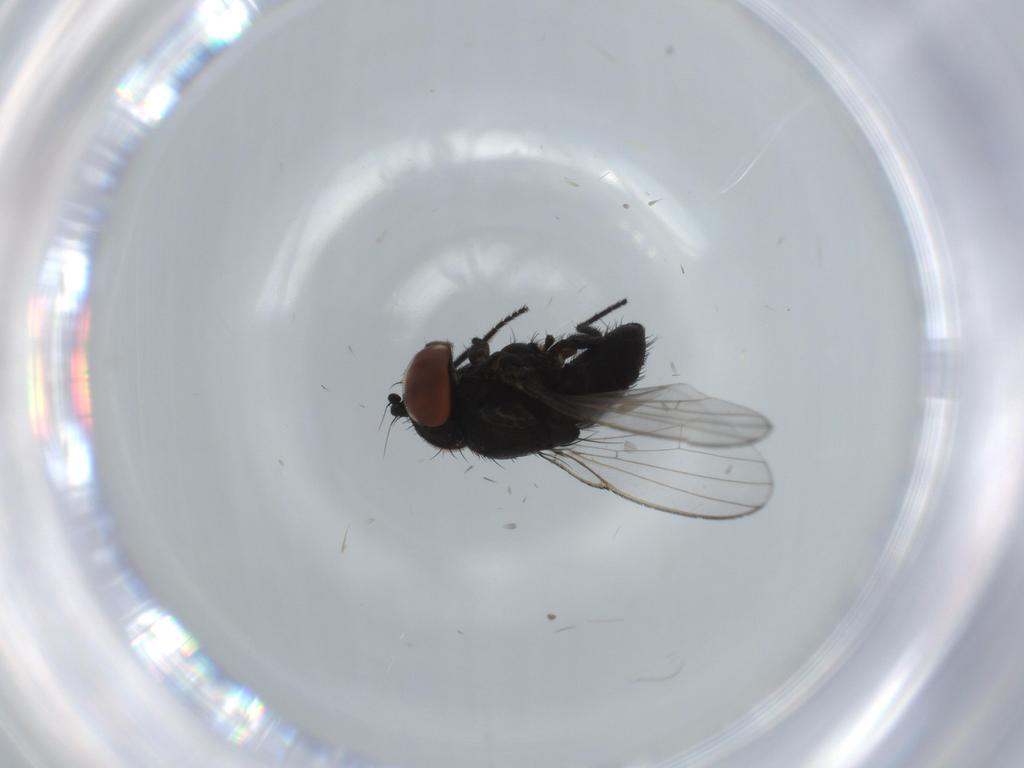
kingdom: Animalia
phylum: Arthropoda
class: Insecta
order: Diptera
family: Milichiidae
